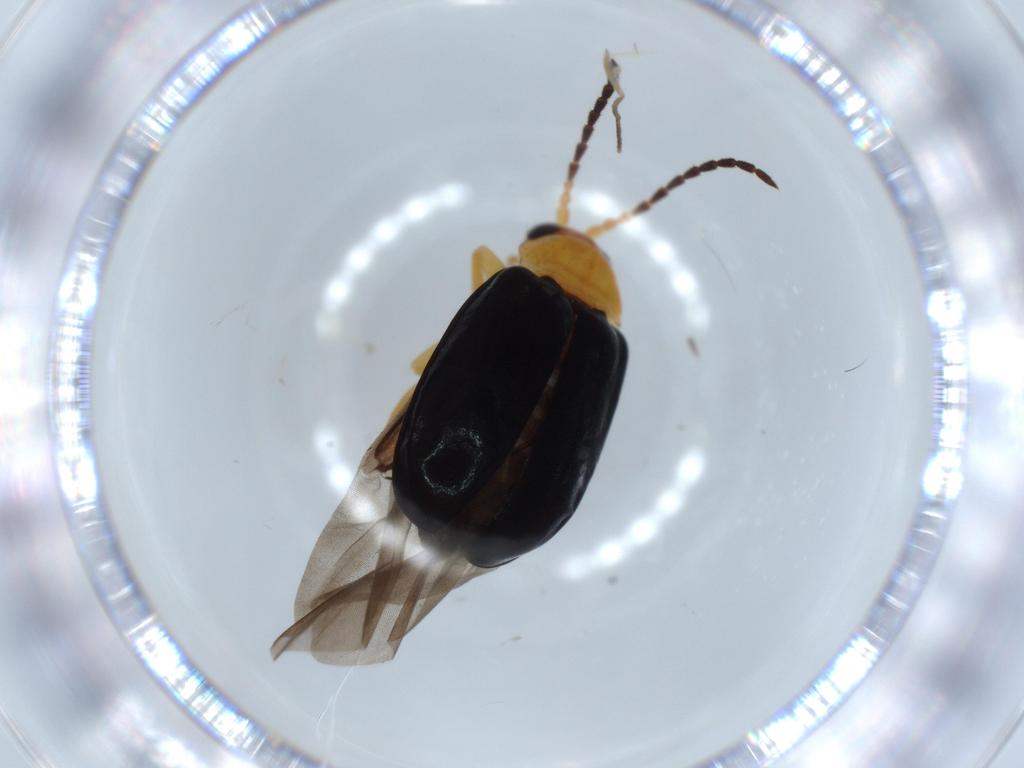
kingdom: Animalia
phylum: Arthropoda
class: Insecta
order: Coleoptera
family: Chrysomelidae
